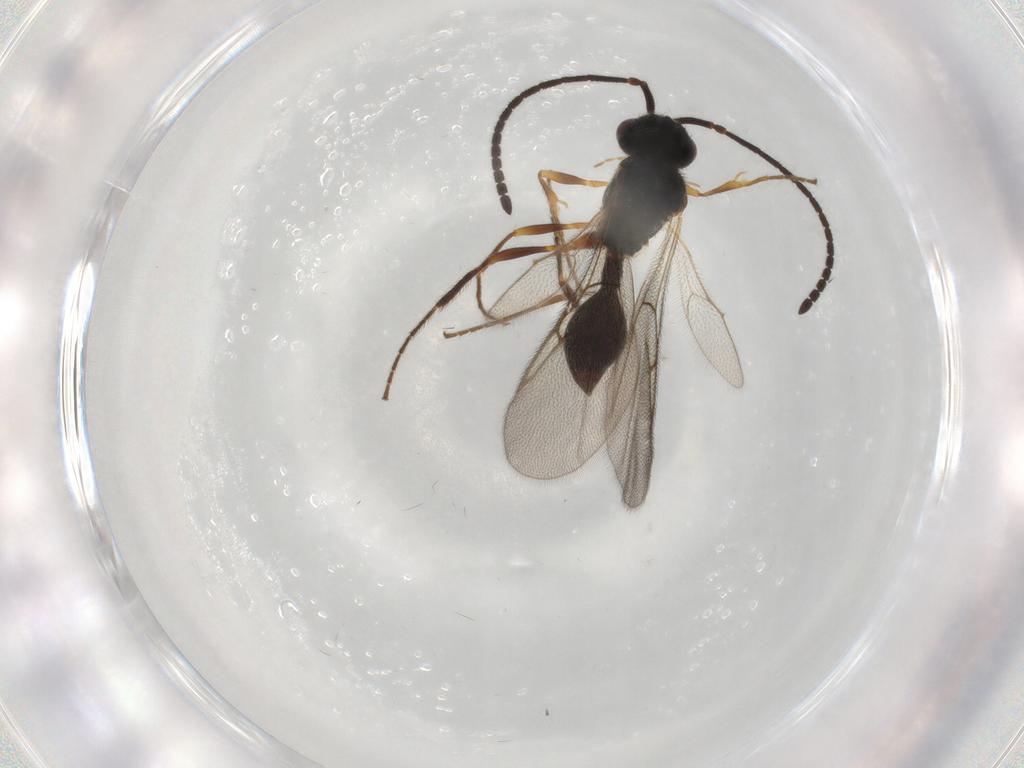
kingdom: Animalia
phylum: Arthropoda
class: Insecta
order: Hymenoptera
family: Diapriidae
